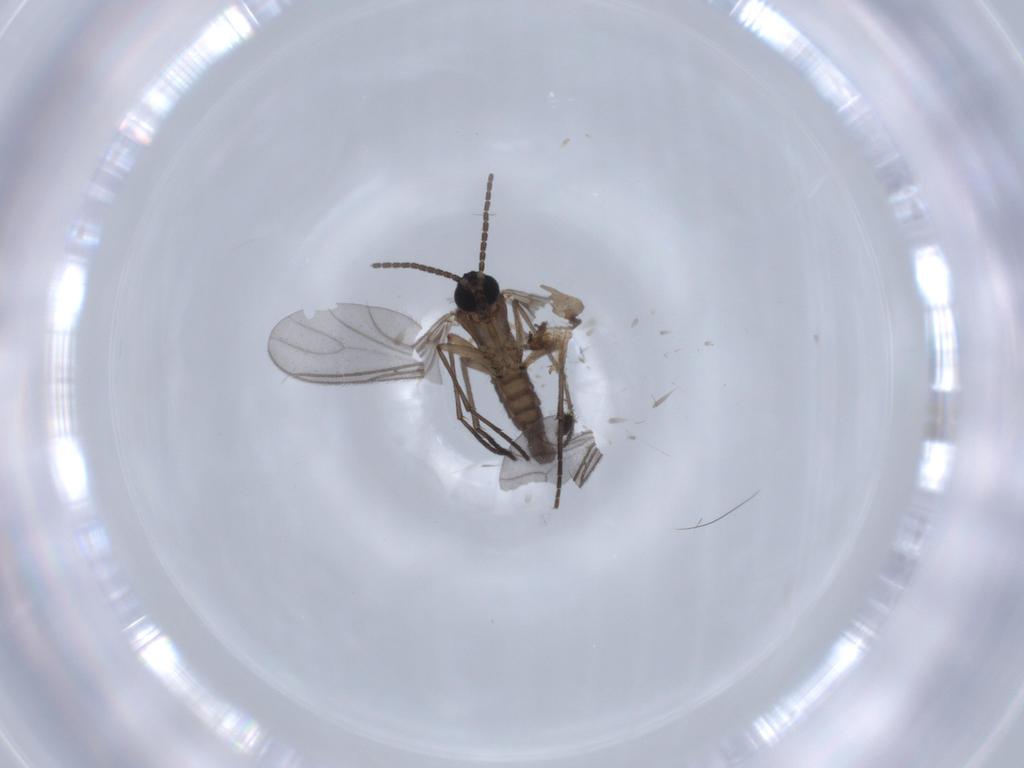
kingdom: Animalia
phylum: Arthropoda
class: Insecta
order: Diptera
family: Sciaridae
